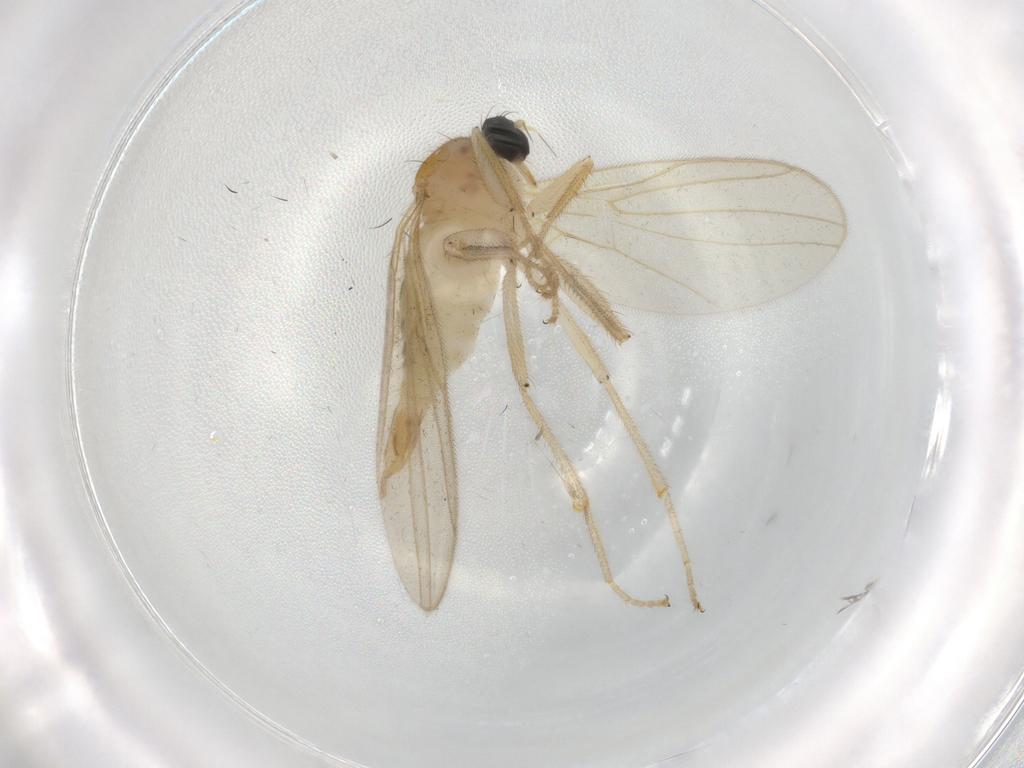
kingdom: Animalia
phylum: Arthropoda
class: Insecta
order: Diptera
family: Hybotidae
